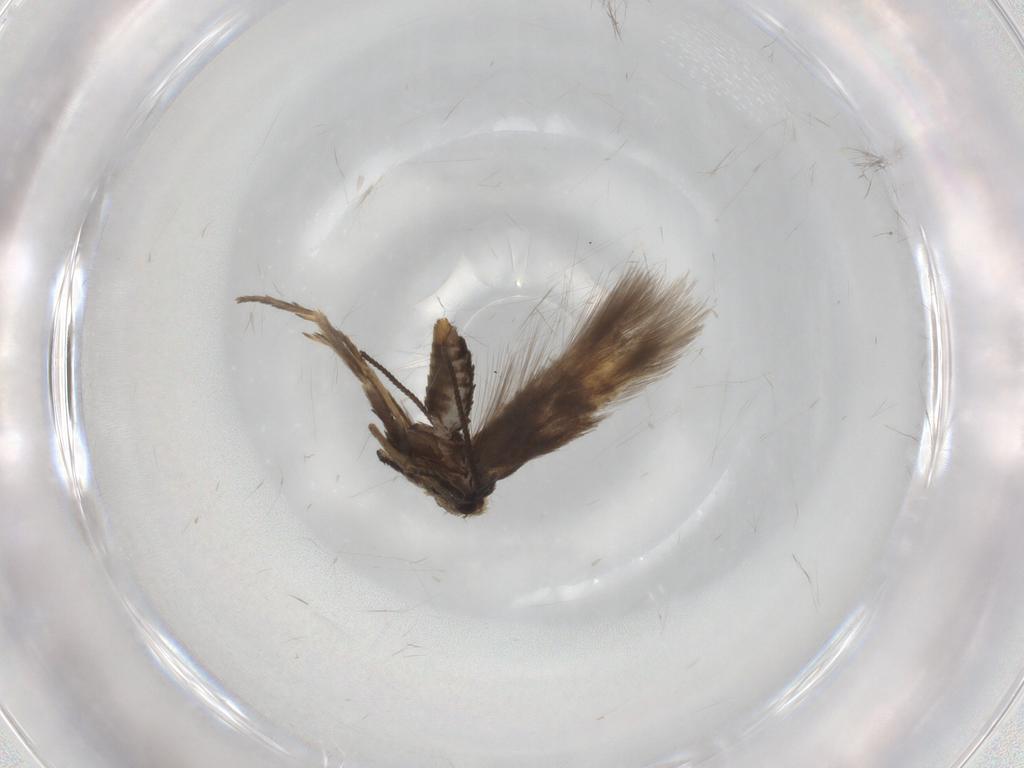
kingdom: Animalia
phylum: Arthropoda
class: Insecta
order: Lepidoptera
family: Nepticulidae
